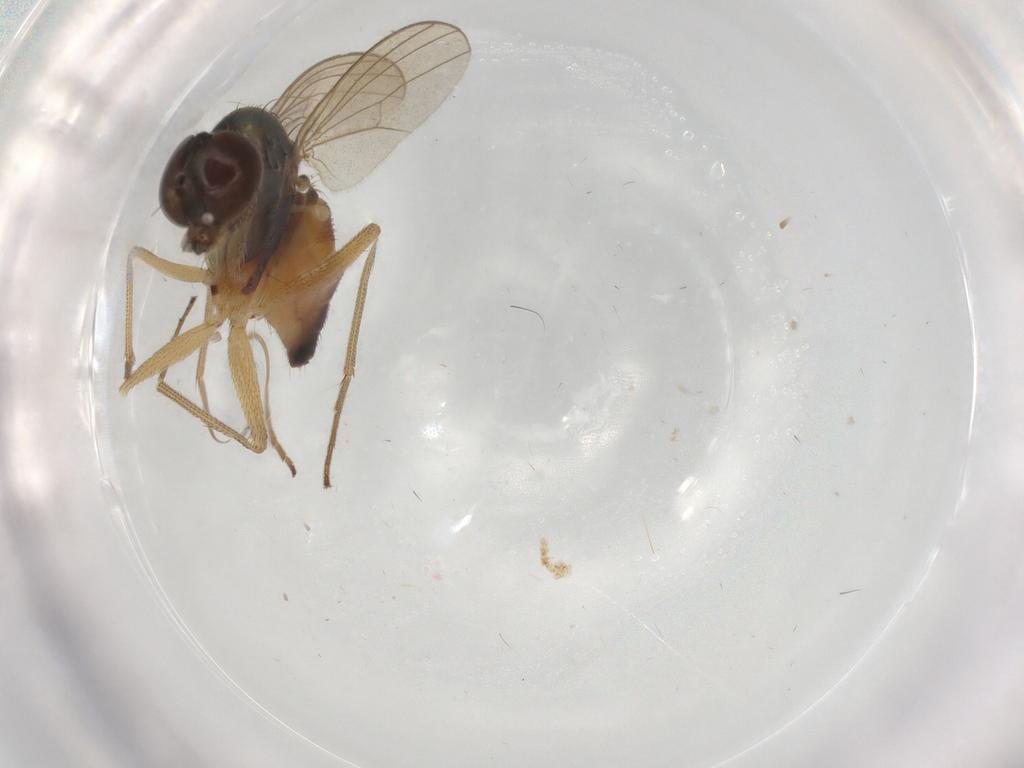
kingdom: Animalia
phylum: Arthropoda
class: Insecta
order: Diptera
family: Dolichopodidae
